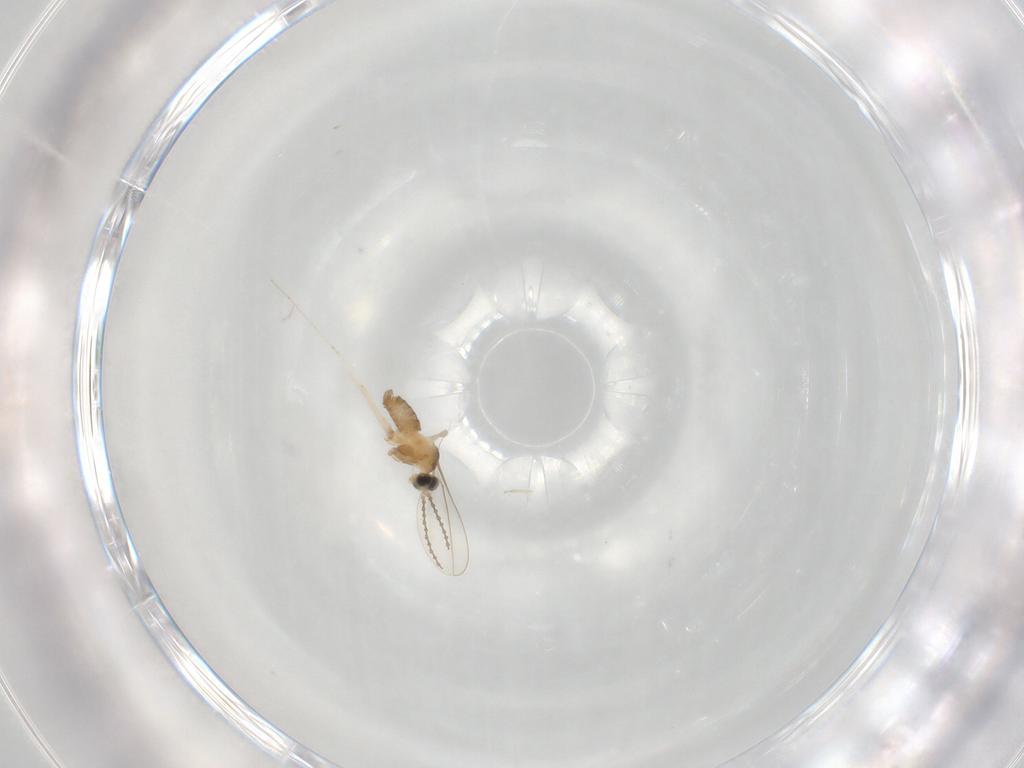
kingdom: Animalia
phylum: Arthropoda
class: Insecta
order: Diptera
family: Cecidomyiidae
